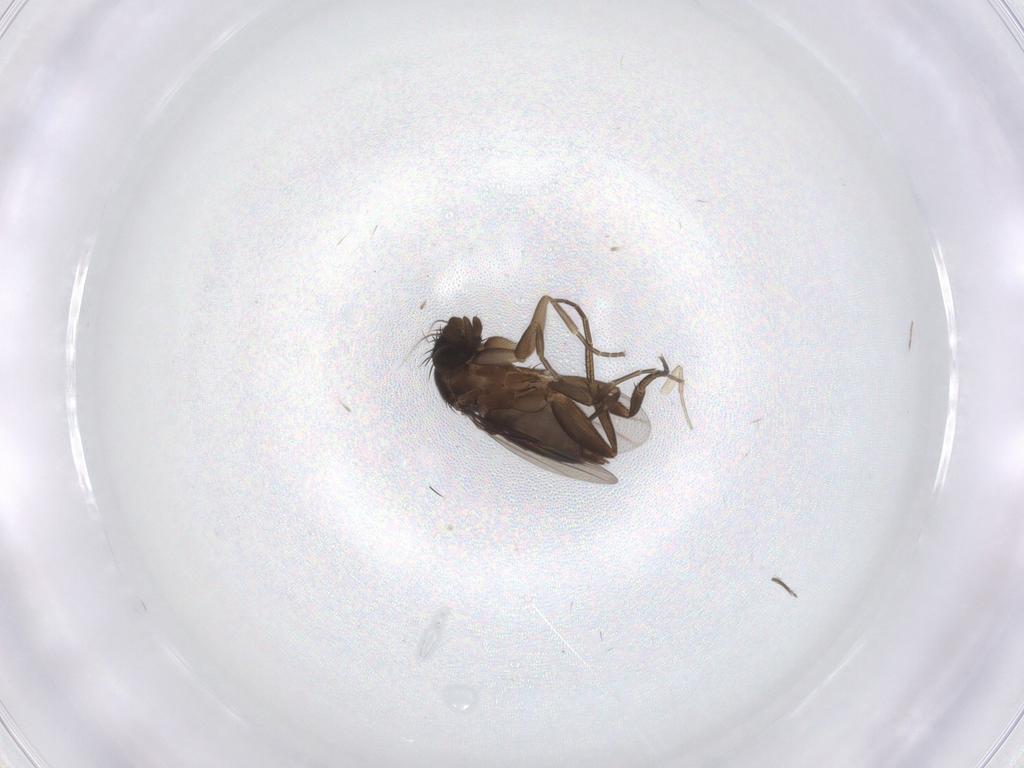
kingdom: Animalia
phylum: Arthropoda
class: Insecta
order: Diptera
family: Phoridae
